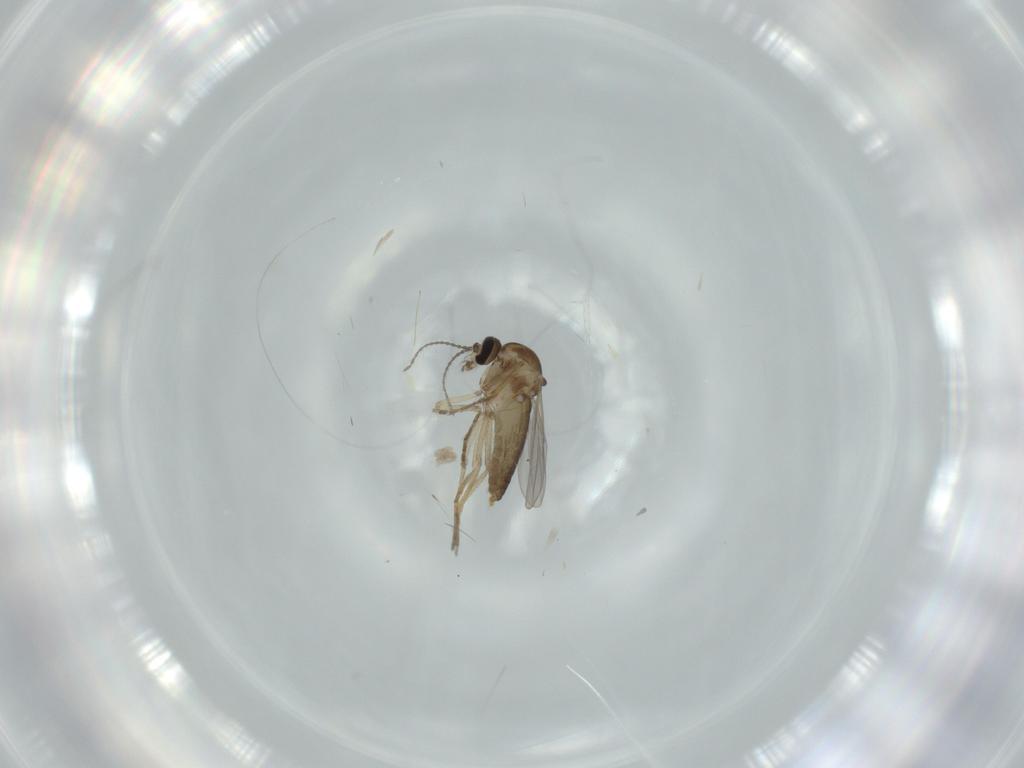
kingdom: Animalia
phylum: Arthropoda
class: Insecta
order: Diptera
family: Ceratopogonidae
